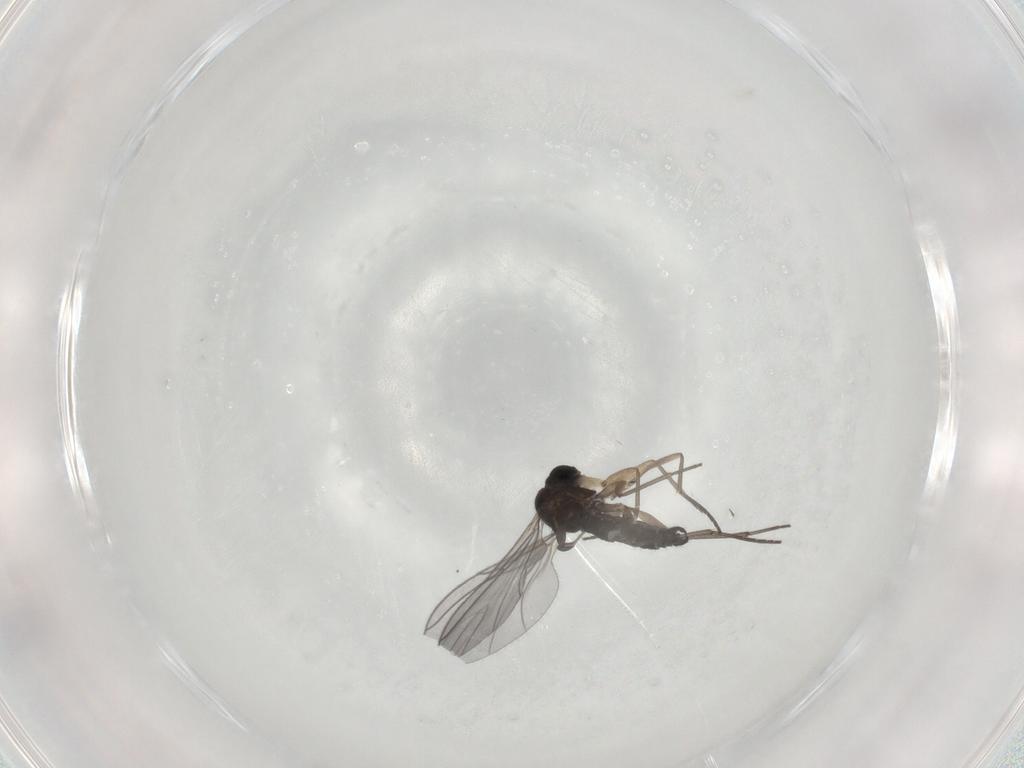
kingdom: Animalia
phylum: Arthropoda
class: Insecta
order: Diptera
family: Sciaridae
